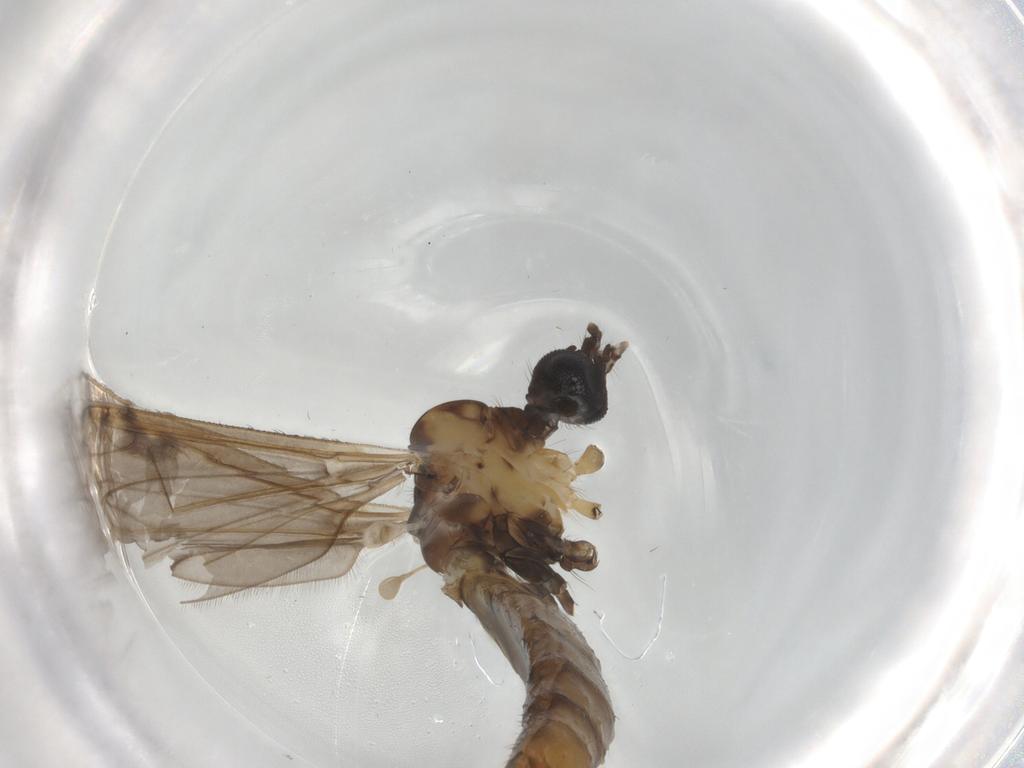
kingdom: Animalia
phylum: Arthropoda
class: Insecta
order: Diptera
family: Limoniidae
